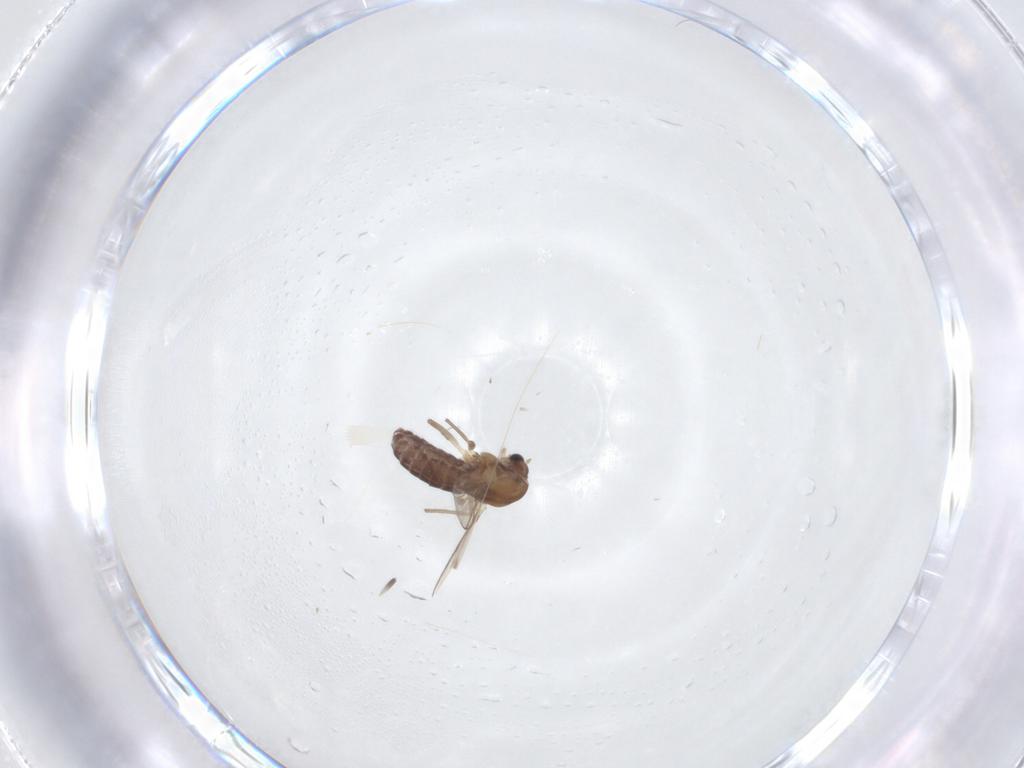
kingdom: Animalia
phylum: Arthropoda
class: Insecta
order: Diptera
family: Chironomidae
